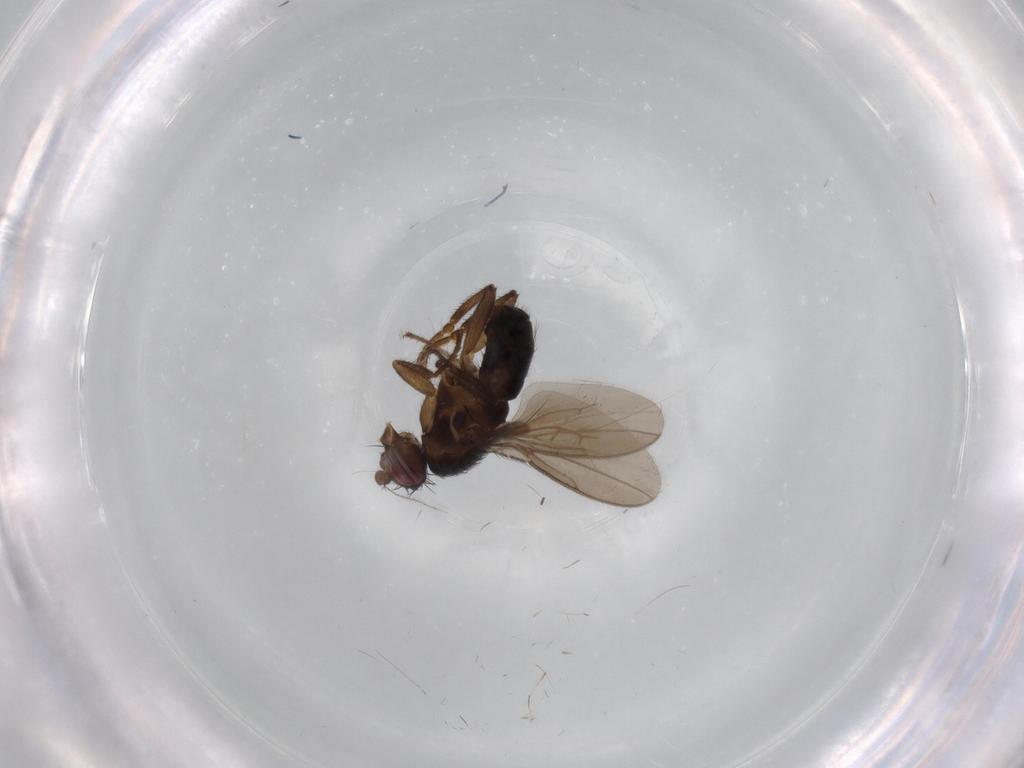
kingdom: Animalia
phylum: Arthropoda
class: Insecta
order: Diptera
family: Sphaeroceridae
